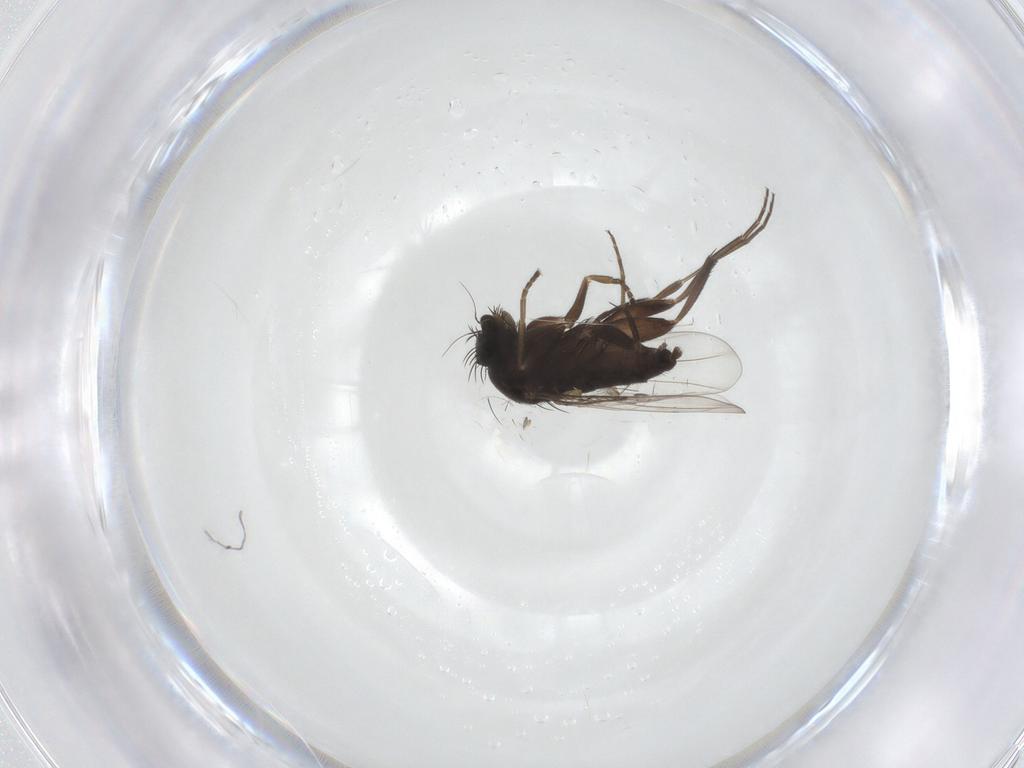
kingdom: Animalia
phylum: Arthropoda
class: Insecta
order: Diptera
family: Phoridae
